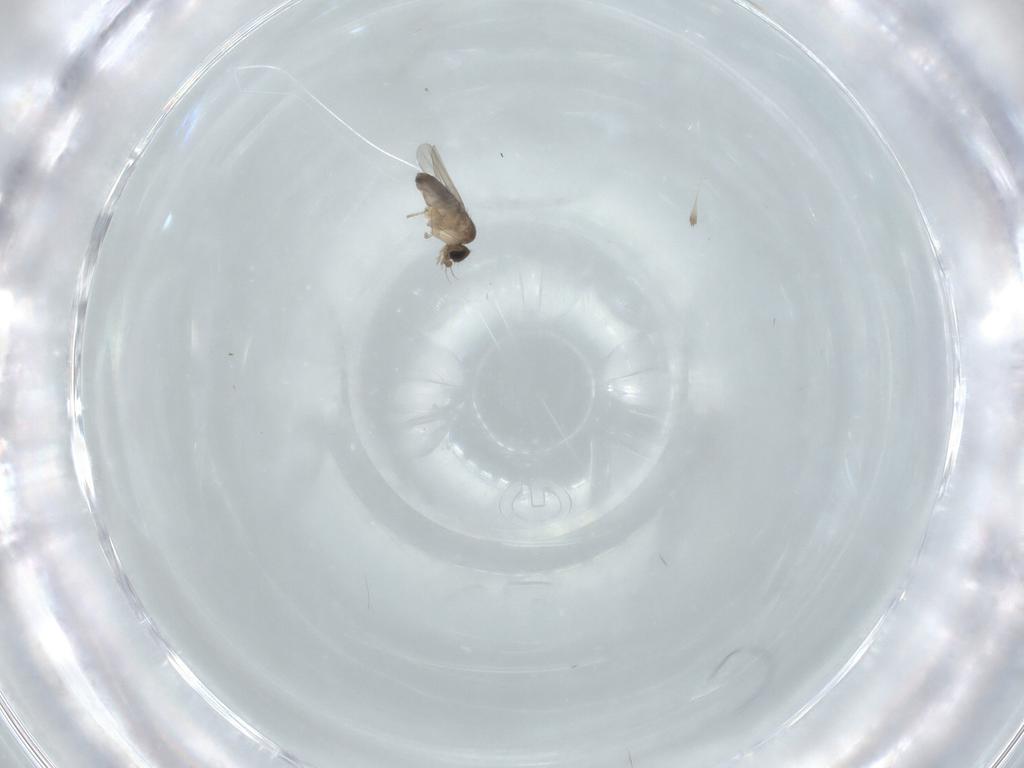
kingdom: Animalia
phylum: Arthropoda
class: Insecta
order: Diptera
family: Phoridae
